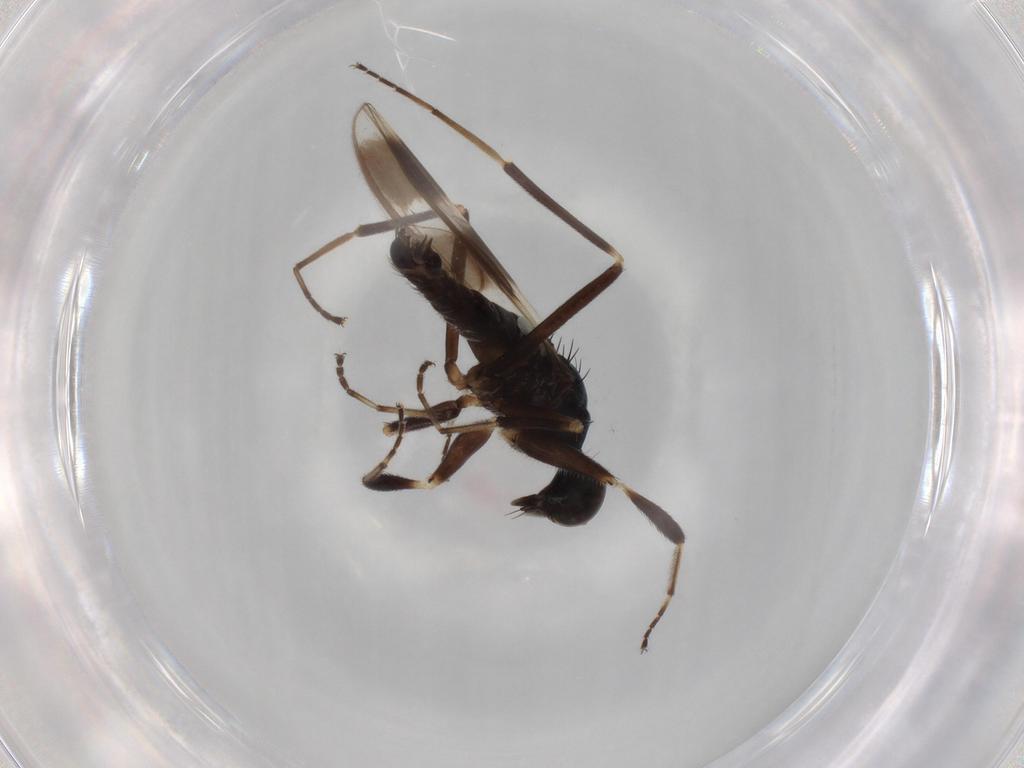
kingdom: Animalia
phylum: Arthropoda
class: Insecta
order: Diptera
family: Hybotidae
